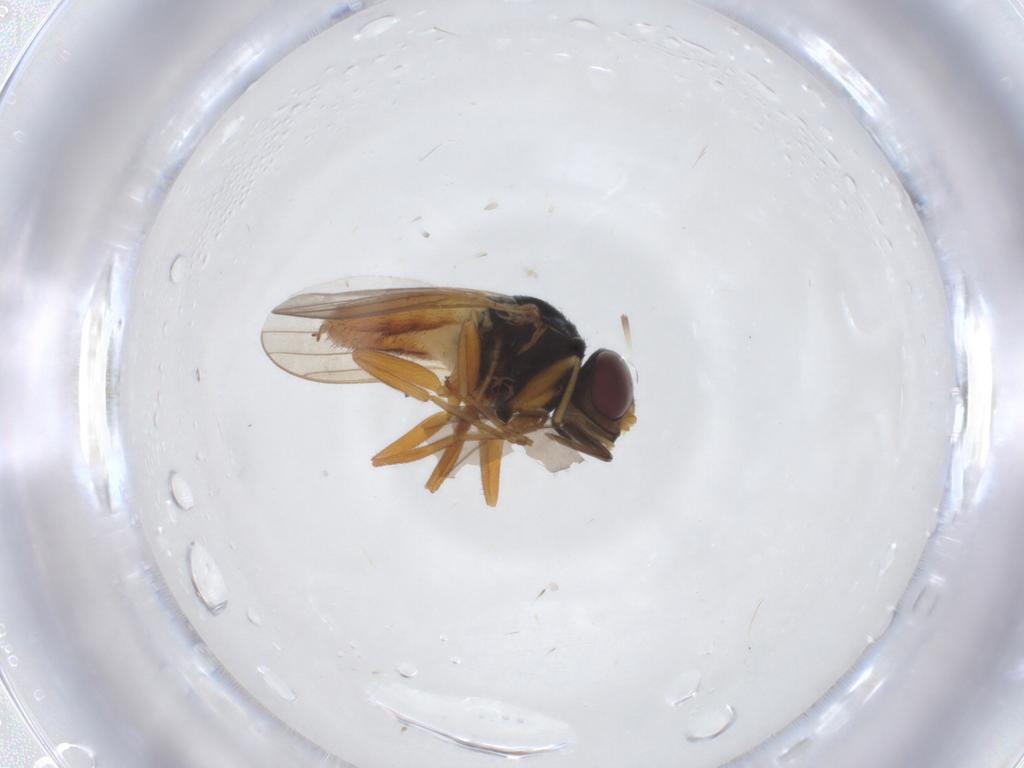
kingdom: Animalia
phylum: Arthropoda
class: Insecta
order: Diptera
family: Chloropidae
